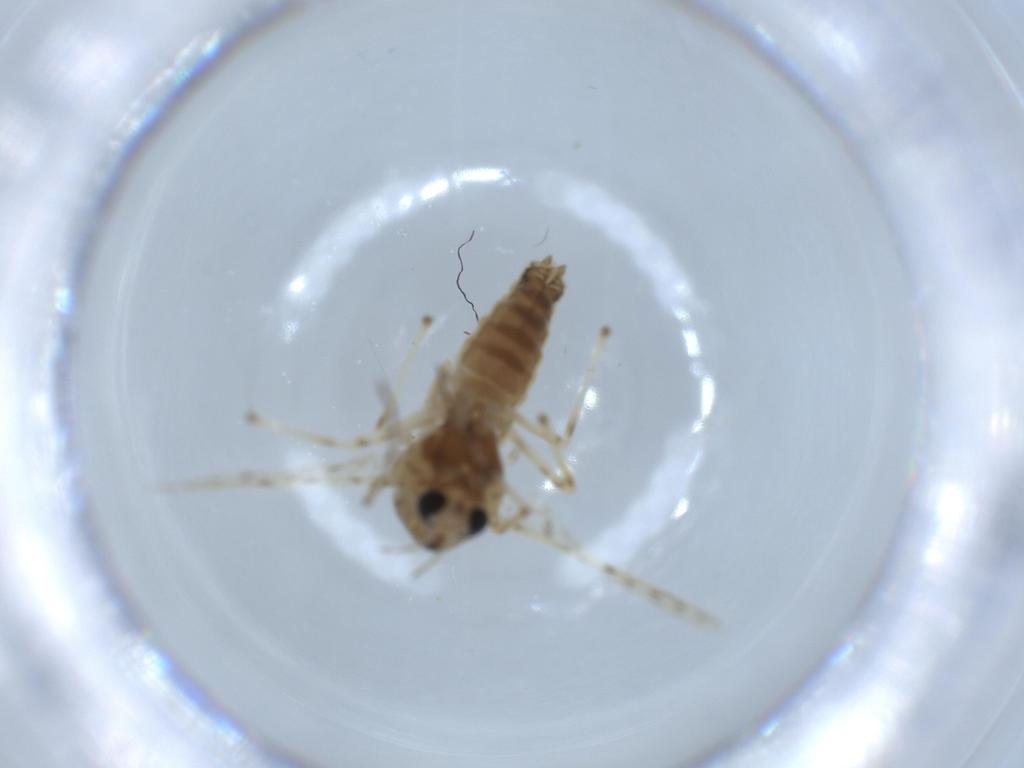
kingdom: Animalia
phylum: Arthropoda
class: Insecta
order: Diptera
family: Chironomidae
